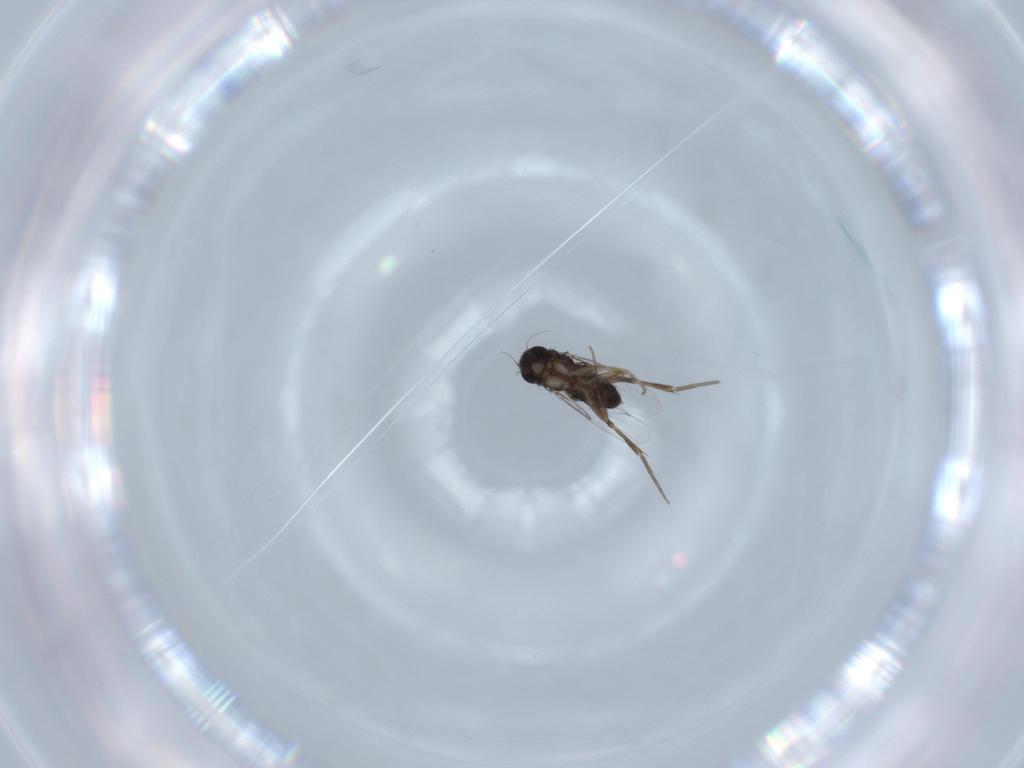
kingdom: Animalia
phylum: Arthropoda
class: Insecta
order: Diptera
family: Phoridae
